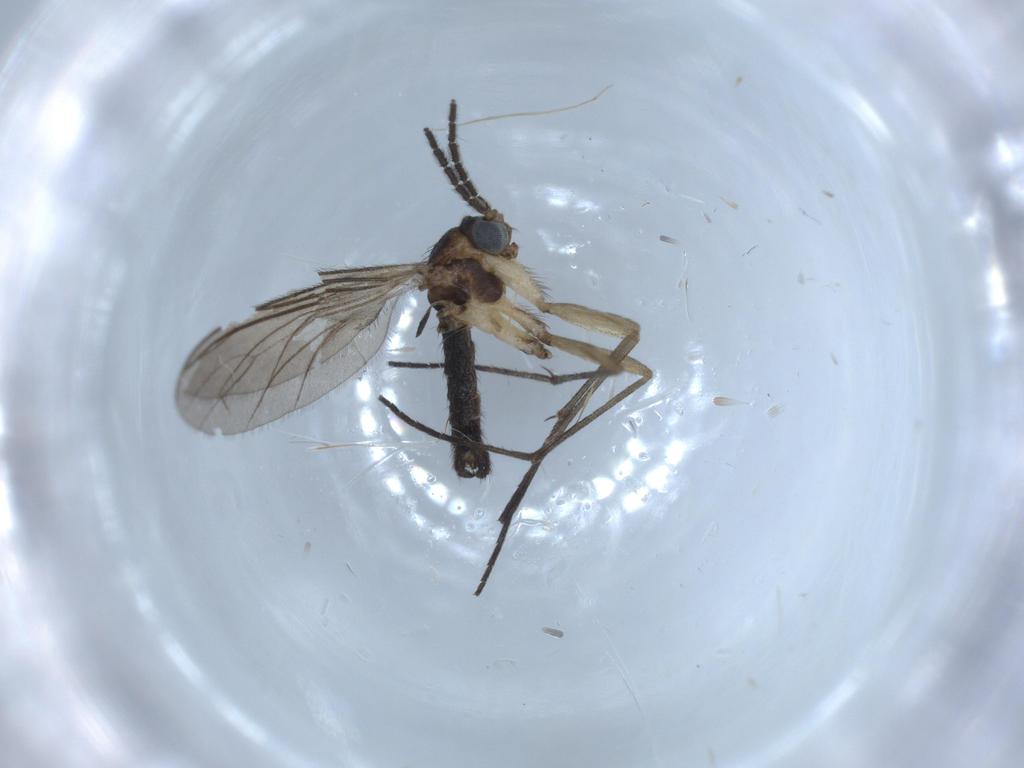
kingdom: Animalia
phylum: Arthropoda
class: Insecta
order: Diptera
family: Sciaridae
